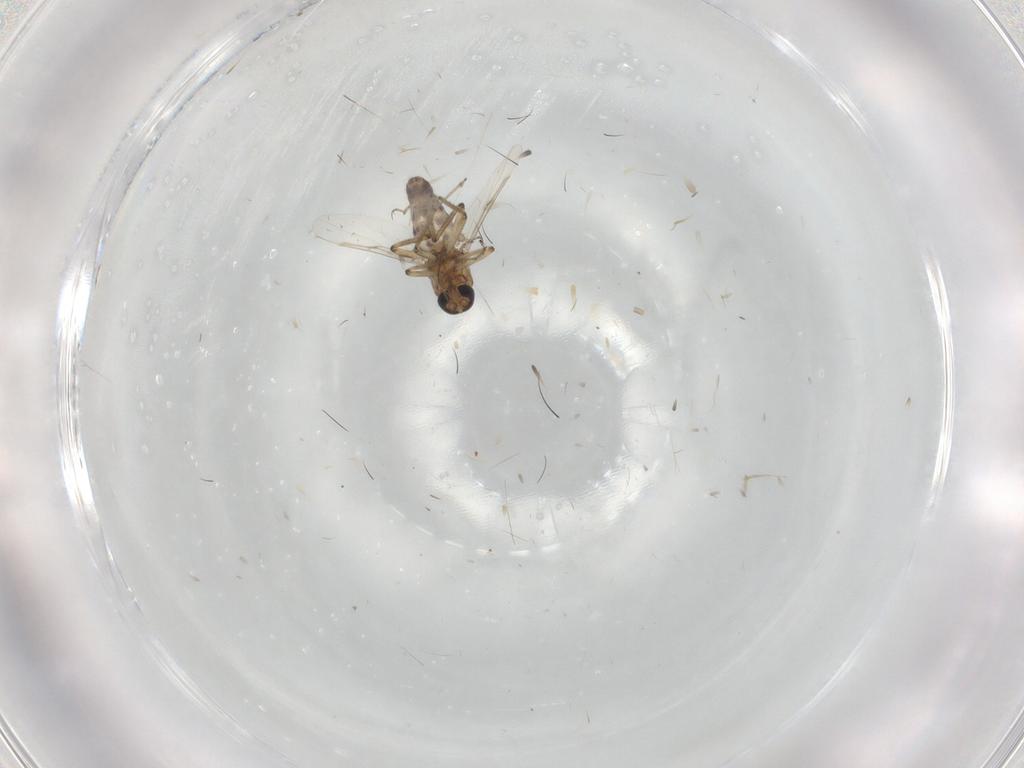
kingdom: Animalia
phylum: Arthropoda
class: Insecta
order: Diptera
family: Ceratopogonidae
